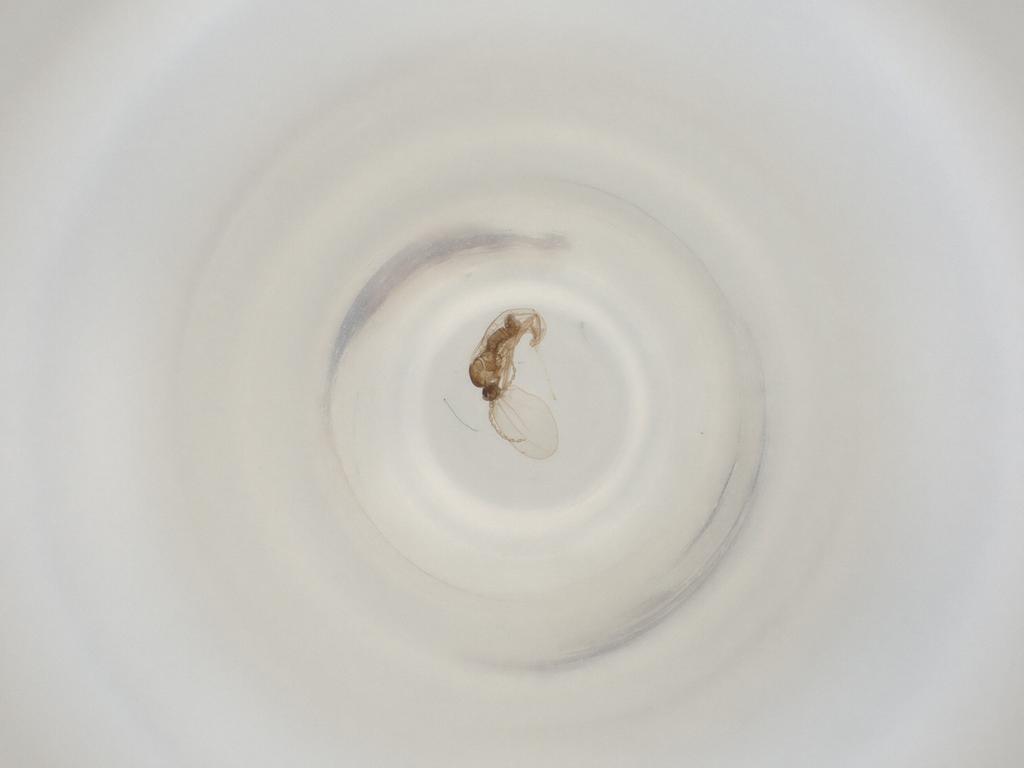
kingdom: Animalia
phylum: Arthropoda
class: Insecta
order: Diptera
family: Cecidomyiidae
